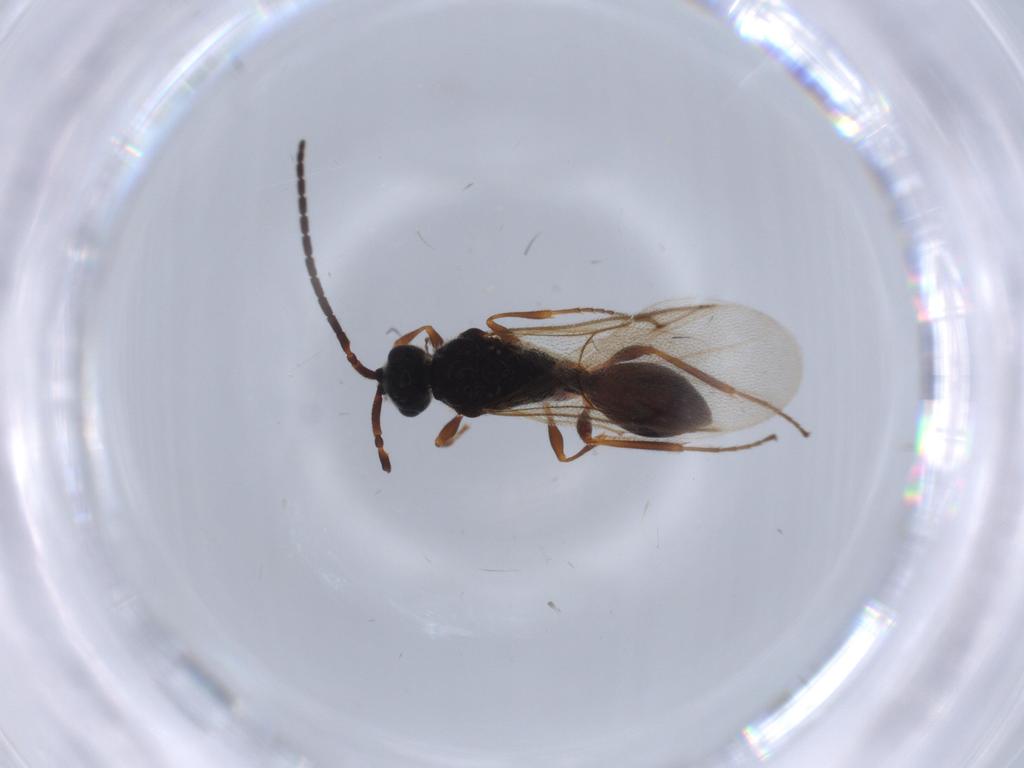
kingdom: Animalia
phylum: Arthropoda
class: Insecta
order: Hymenoptera
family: Diapriidae
